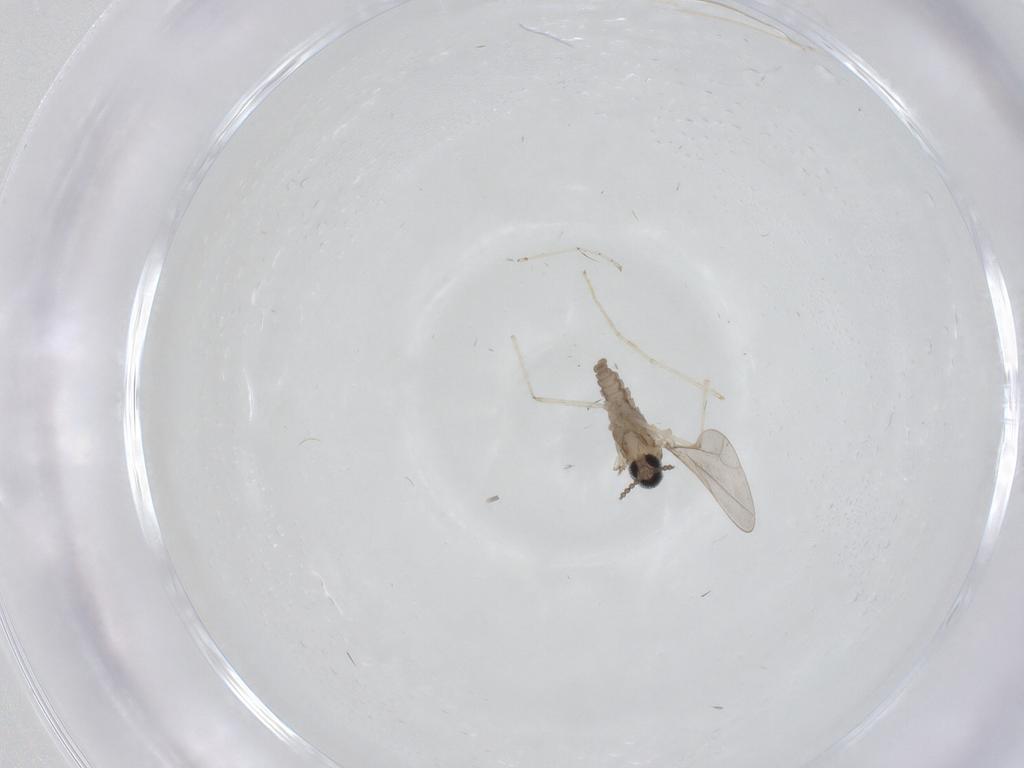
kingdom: Animalia
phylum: Arthropoda
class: Insecta
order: Diptera
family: Chironomidae
